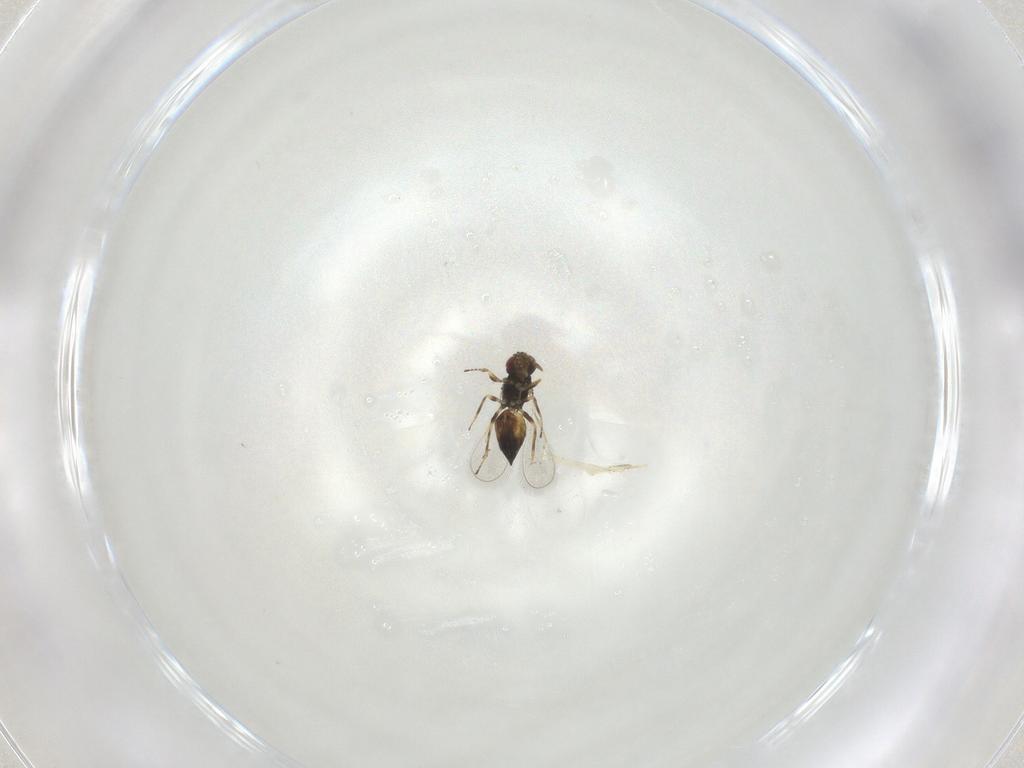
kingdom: Animalia
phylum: Arthropoda
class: Insecta
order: Hymenoptera
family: Eulophidae
